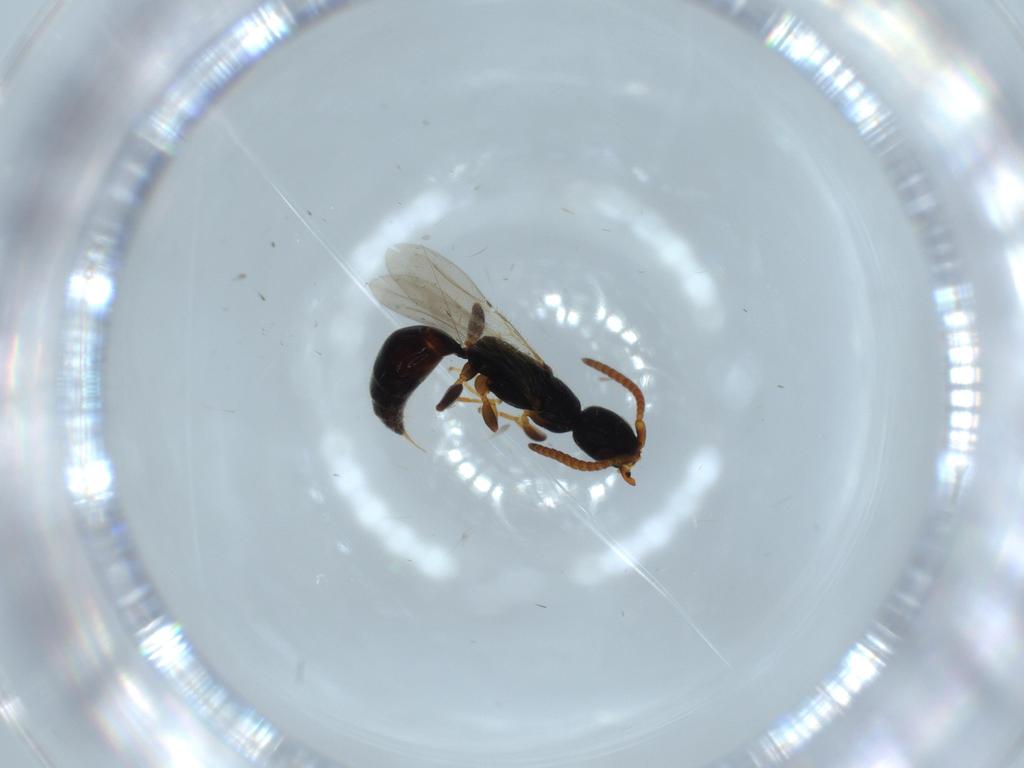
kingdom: Animalia
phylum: Arthropoda
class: Insecta
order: Hymenoptera
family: Bethylidae
